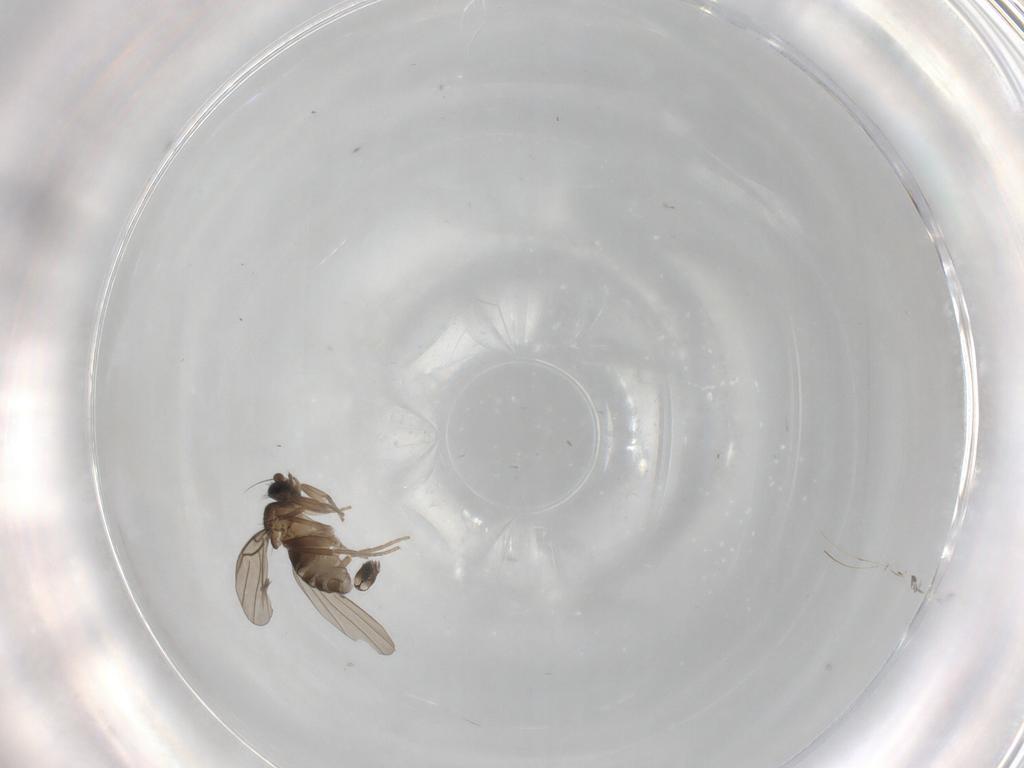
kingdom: Animalia
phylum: Arthropoda
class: Insecta
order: Diptera
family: Phoridae
